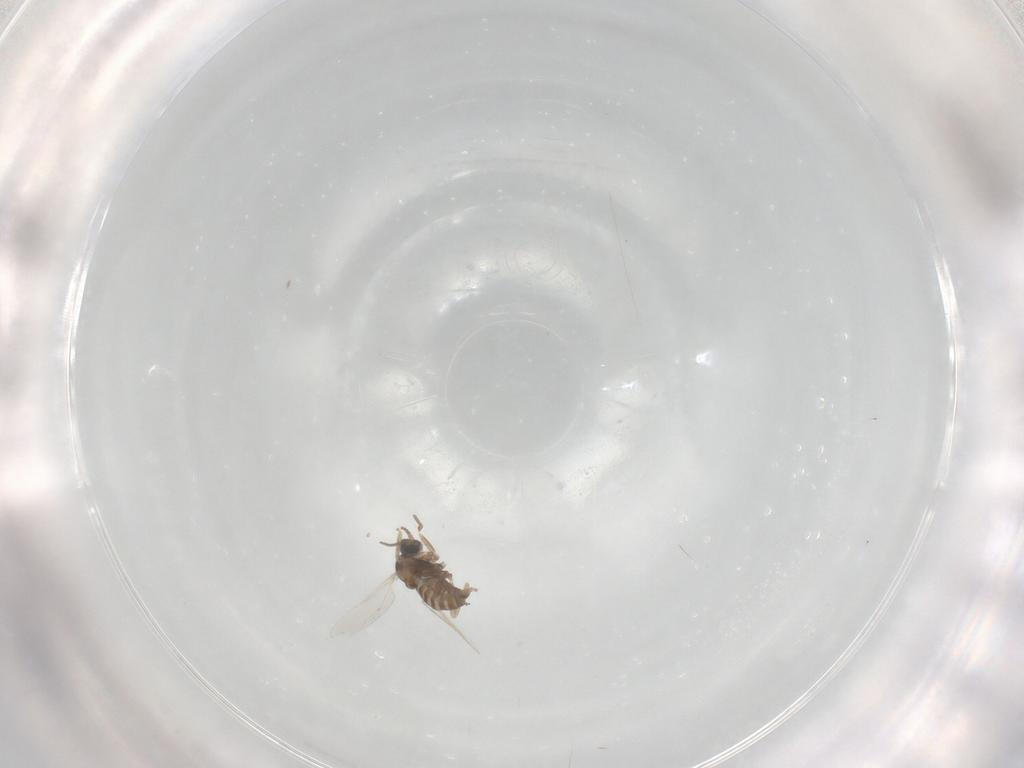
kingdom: Animalia
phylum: Arthropoda
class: Insecta
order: Diptera
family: Cecidomyiidae
